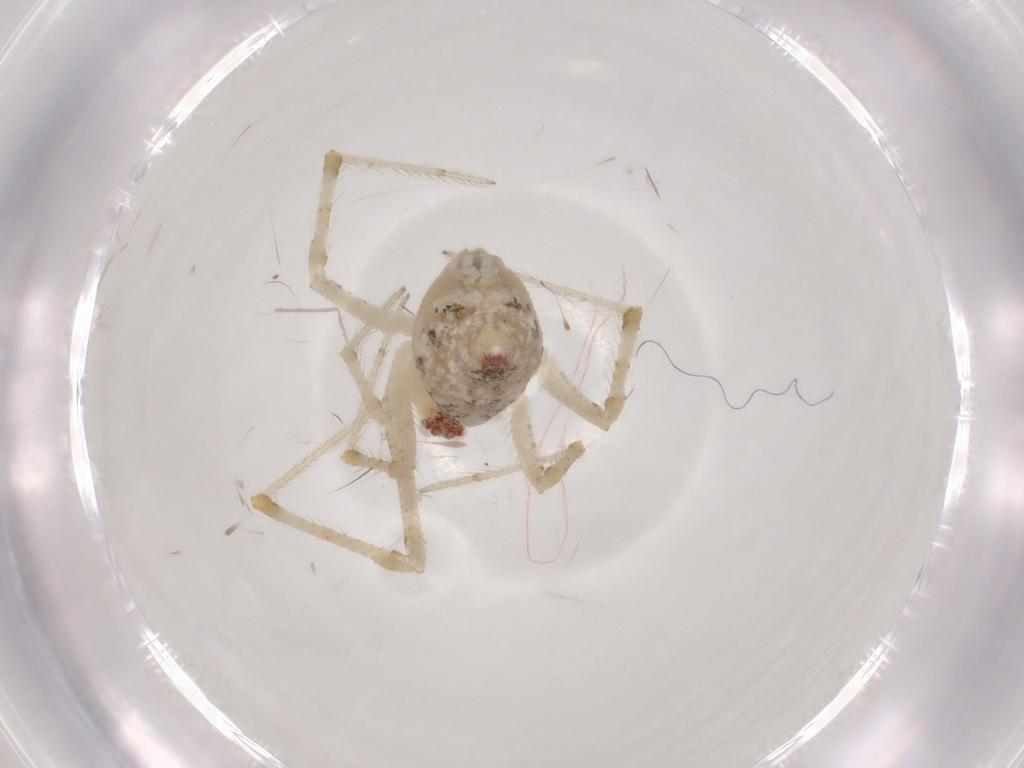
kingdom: Animalia
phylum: Arthropoda
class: Arachnida
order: Araneae
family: Theridiidae
